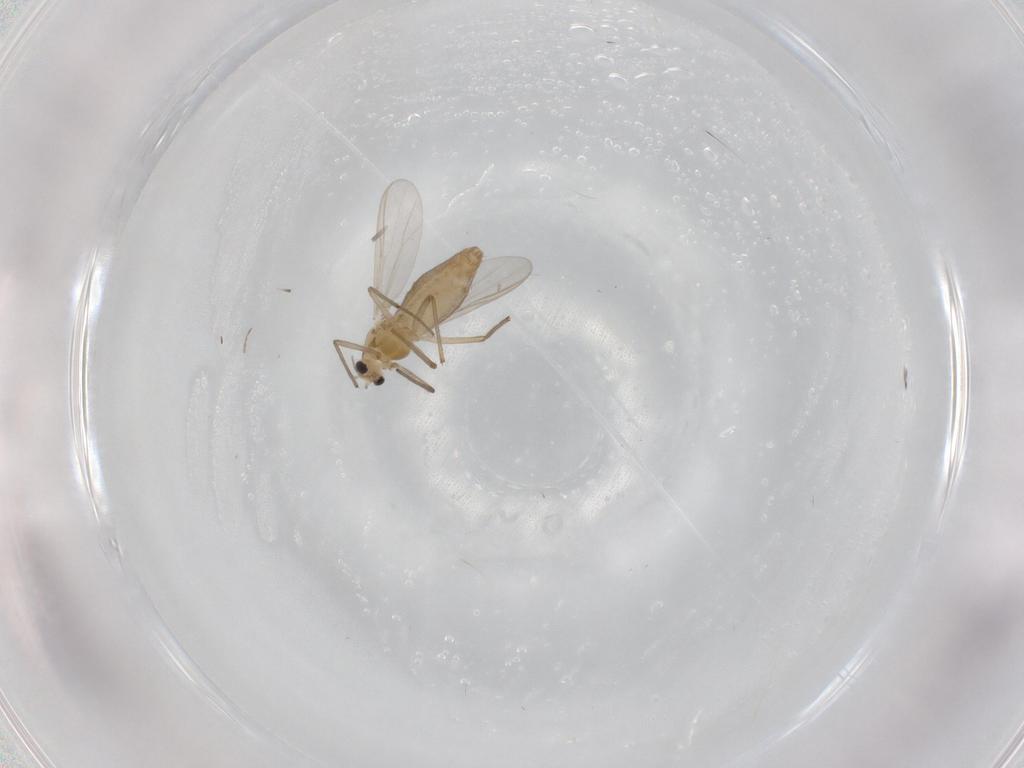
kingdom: Animalia
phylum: Arthropoda
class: Insecta
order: Diptera
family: Chironomidae
